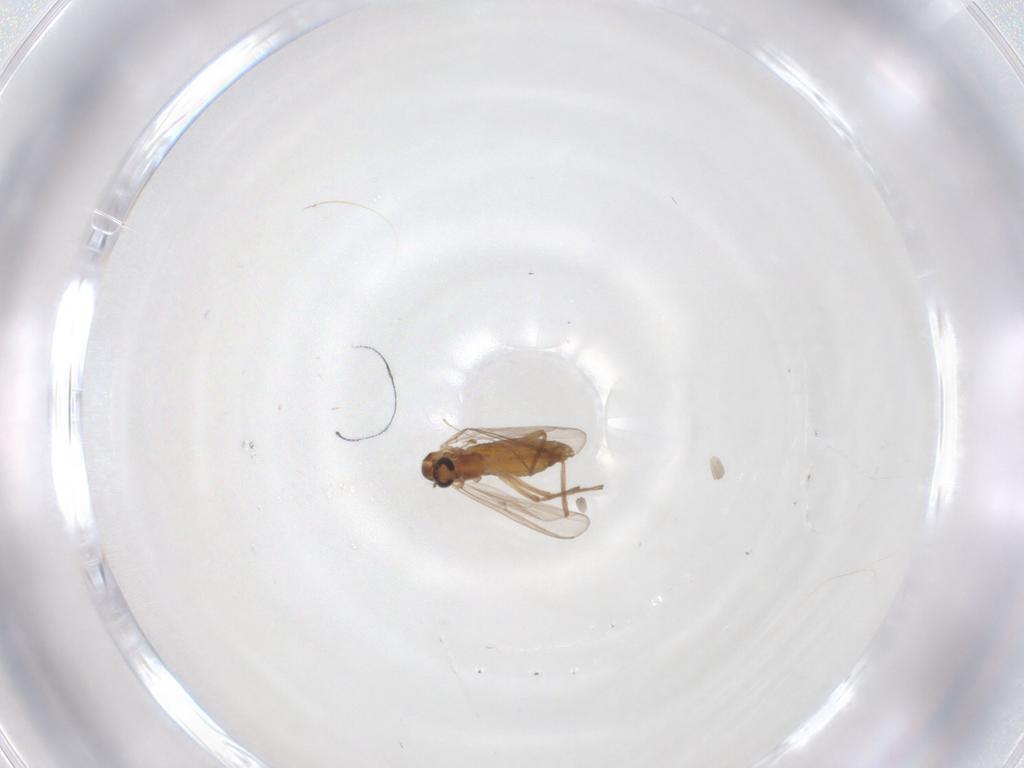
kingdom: Animalia
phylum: Arthropoda
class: Insecta
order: Diptera
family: Chironomidae
